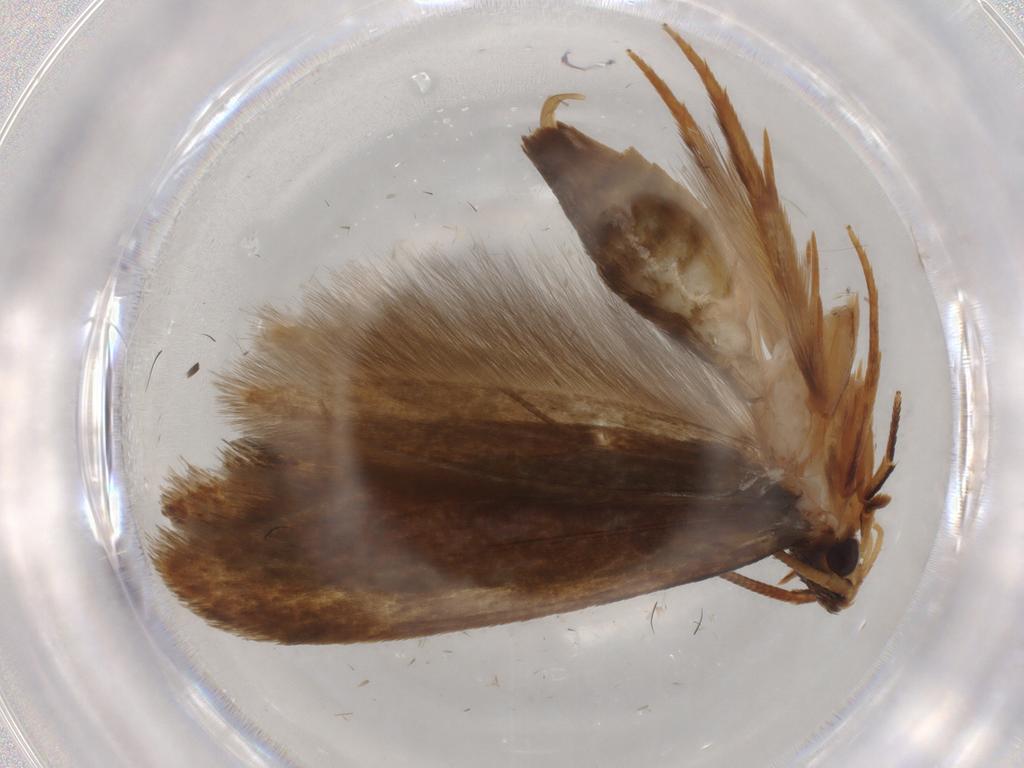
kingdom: Animalia
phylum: Arthropoda
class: Insecta
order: Lepidoptera
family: Tineidae
